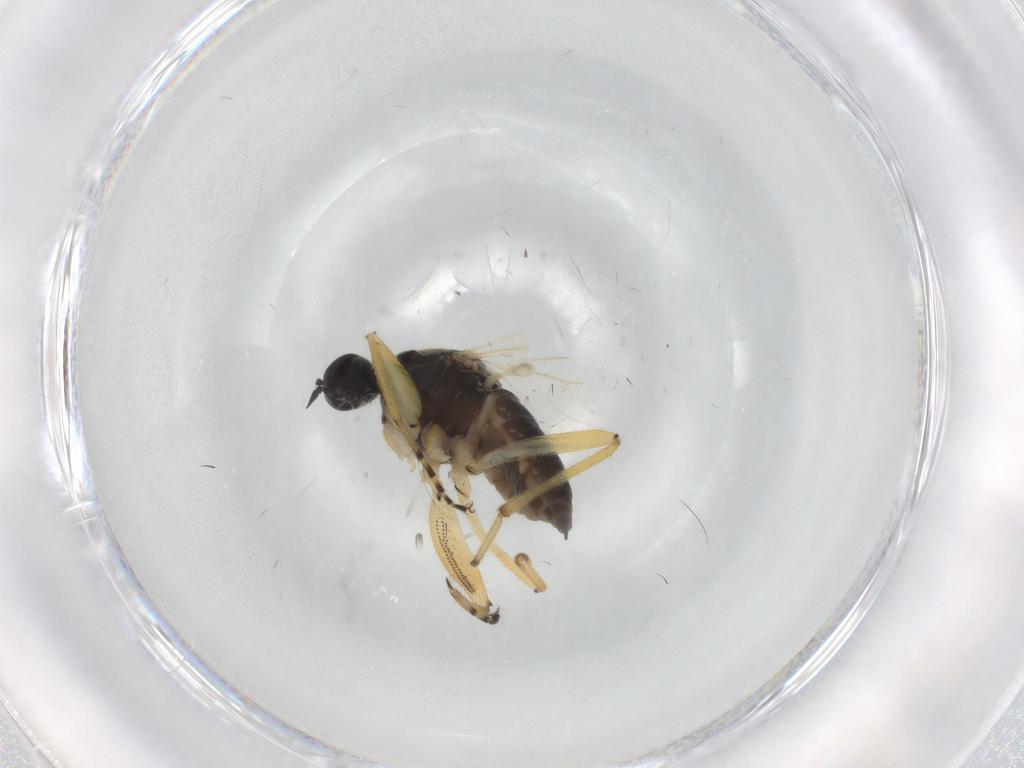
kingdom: Animalia
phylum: Arthropoda
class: Insecta
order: Diptera
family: Hybotidae
